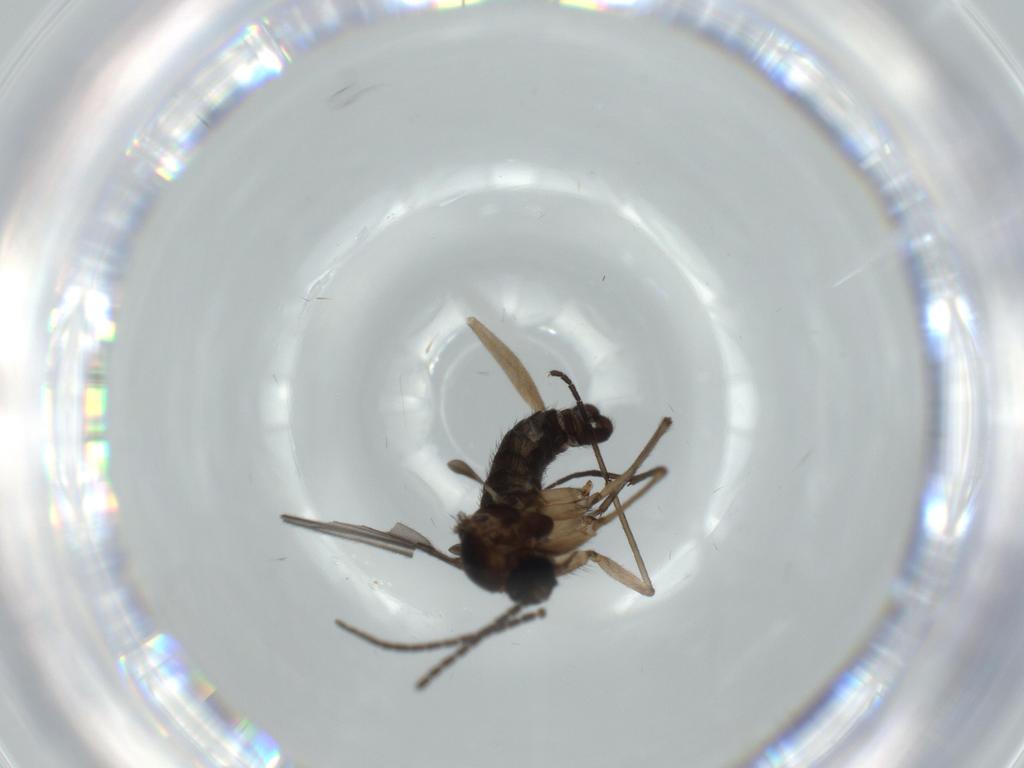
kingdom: Animalia
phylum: Arthropoda
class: Insecta
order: Diptera
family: Sciaridae
